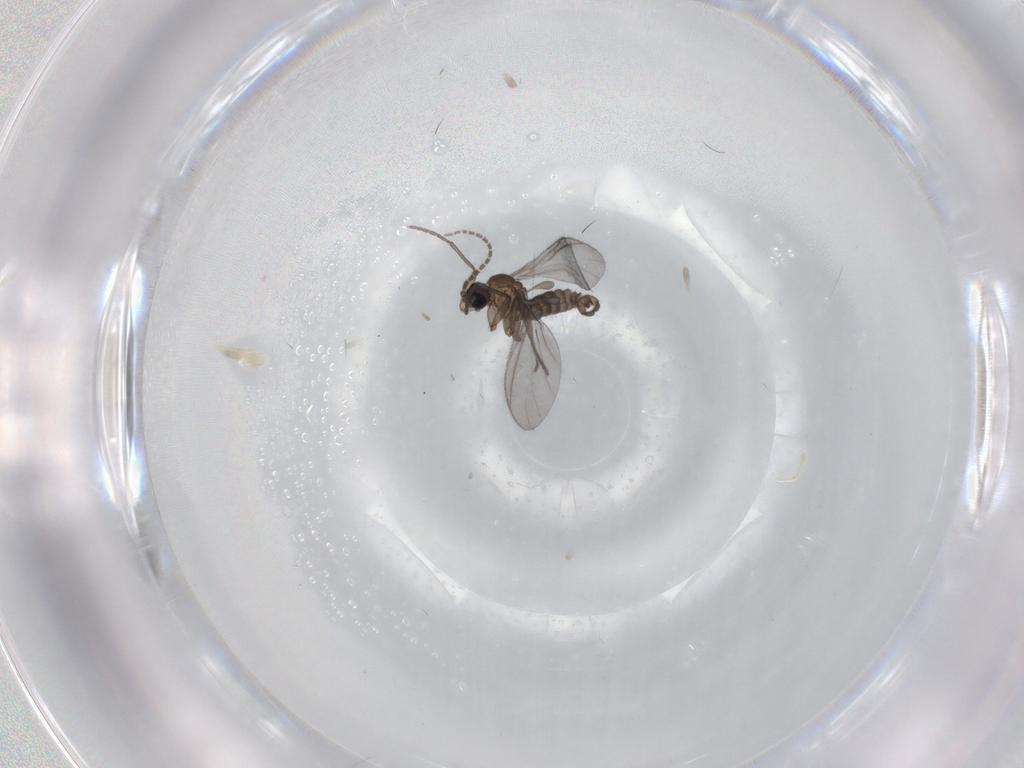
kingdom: Animalia
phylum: Arthropoda
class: Insecta
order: Diptera
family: Sciaridae
